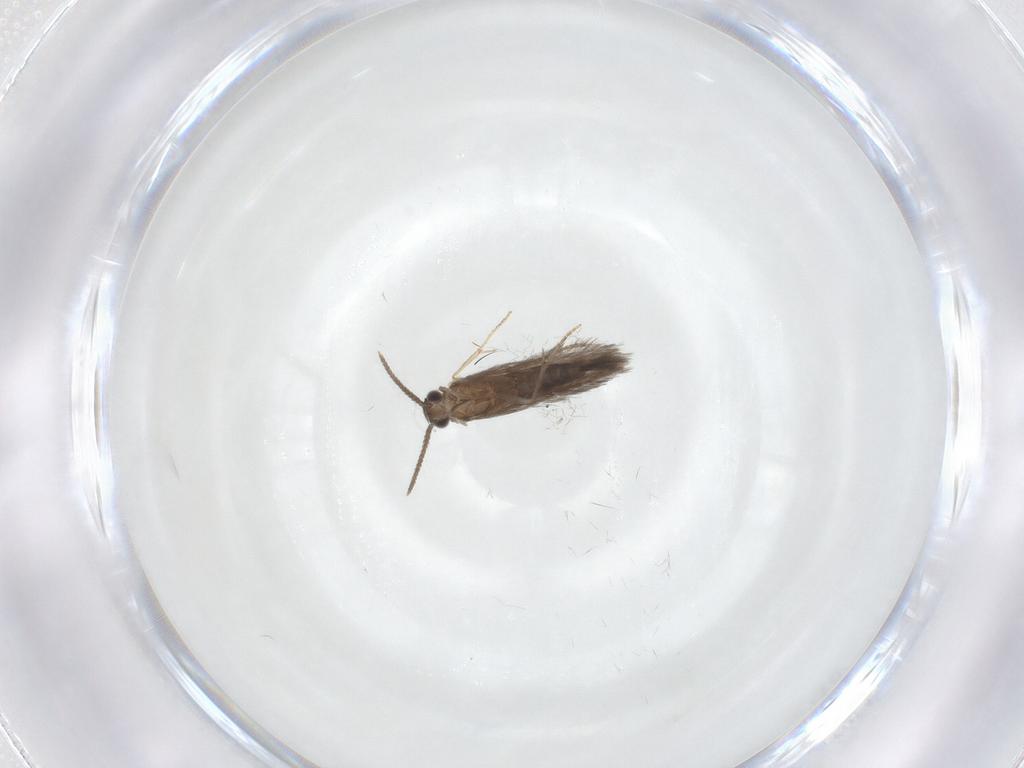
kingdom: Animalia
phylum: Arthropoda
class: Insecta
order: Trichoptera
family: Hydroptilidae
